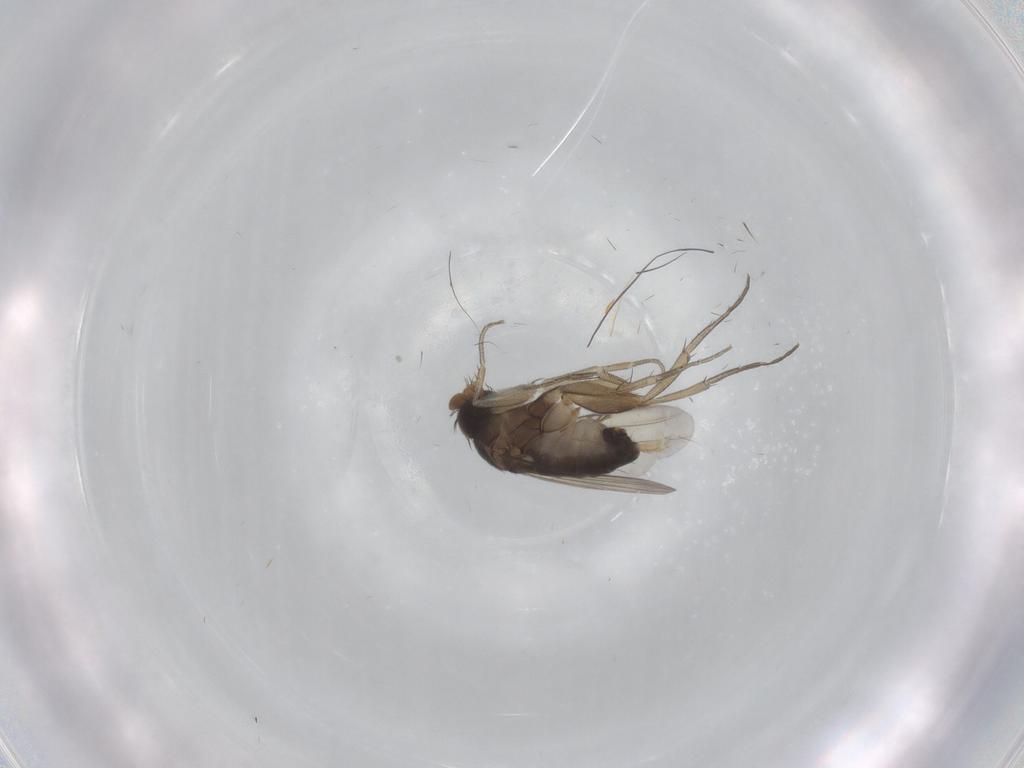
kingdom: Animalia
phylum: Arthropoda
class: Insecta
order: Diptera
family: Phoridae
